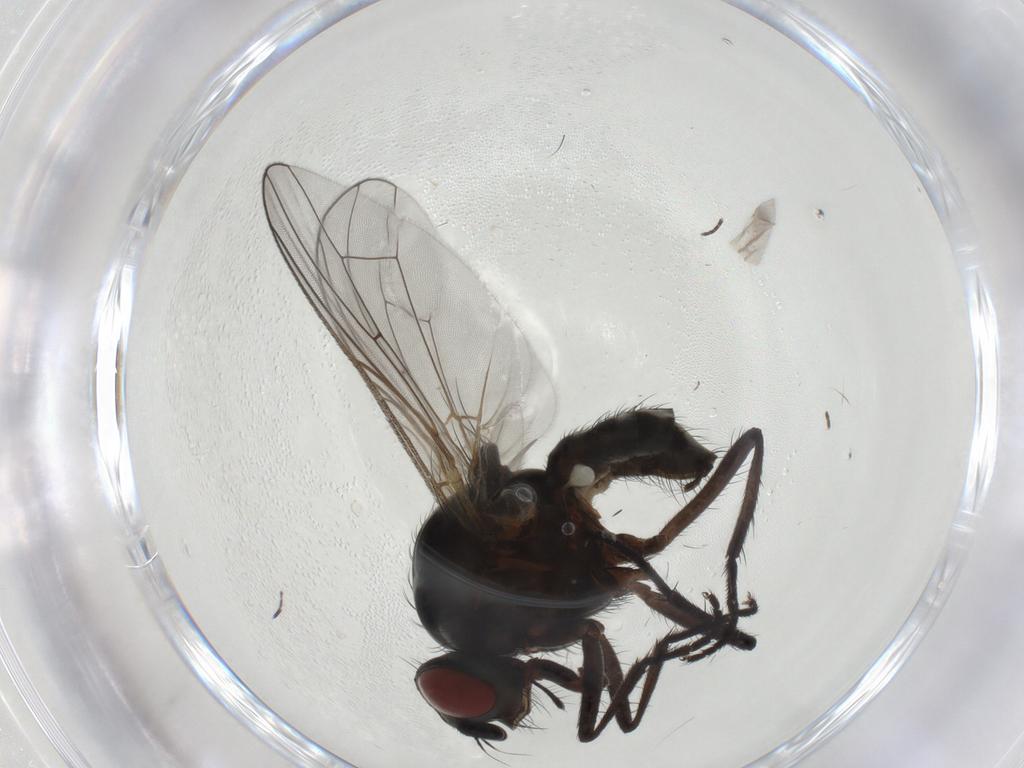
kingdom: Animalia
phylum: Arthropoda
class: Insecta
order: Diptera
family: Anthomyiidae
